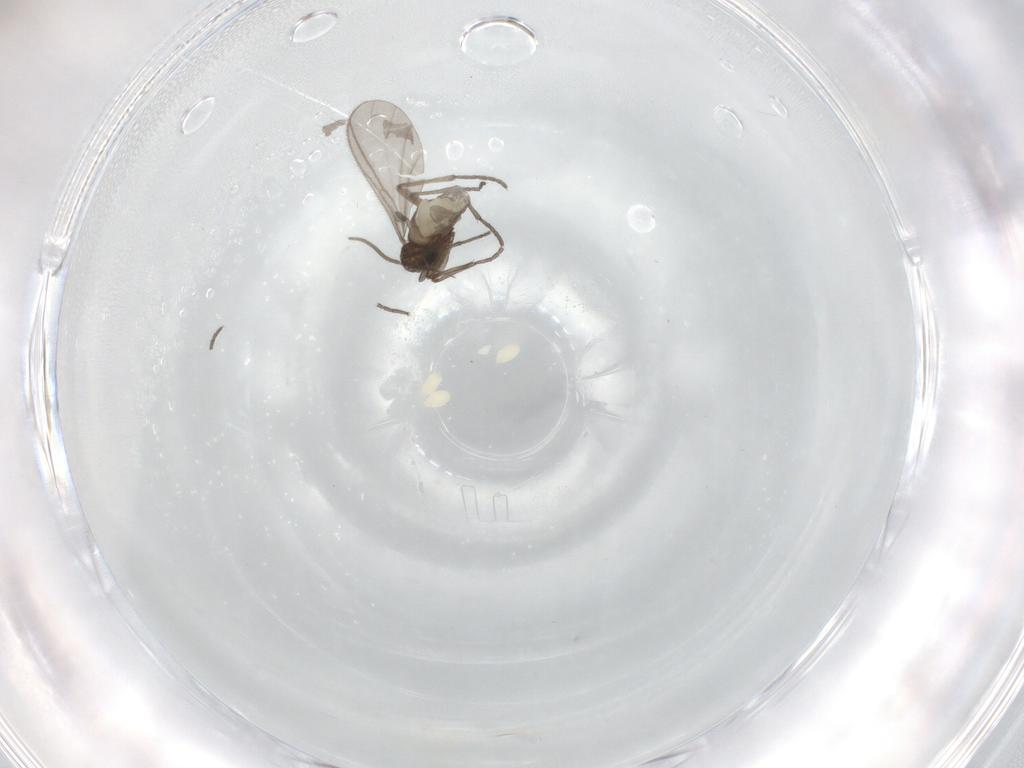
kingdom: Animalia
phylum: Arthropoda
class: Insecta
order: Diptera
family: Sciaridae
